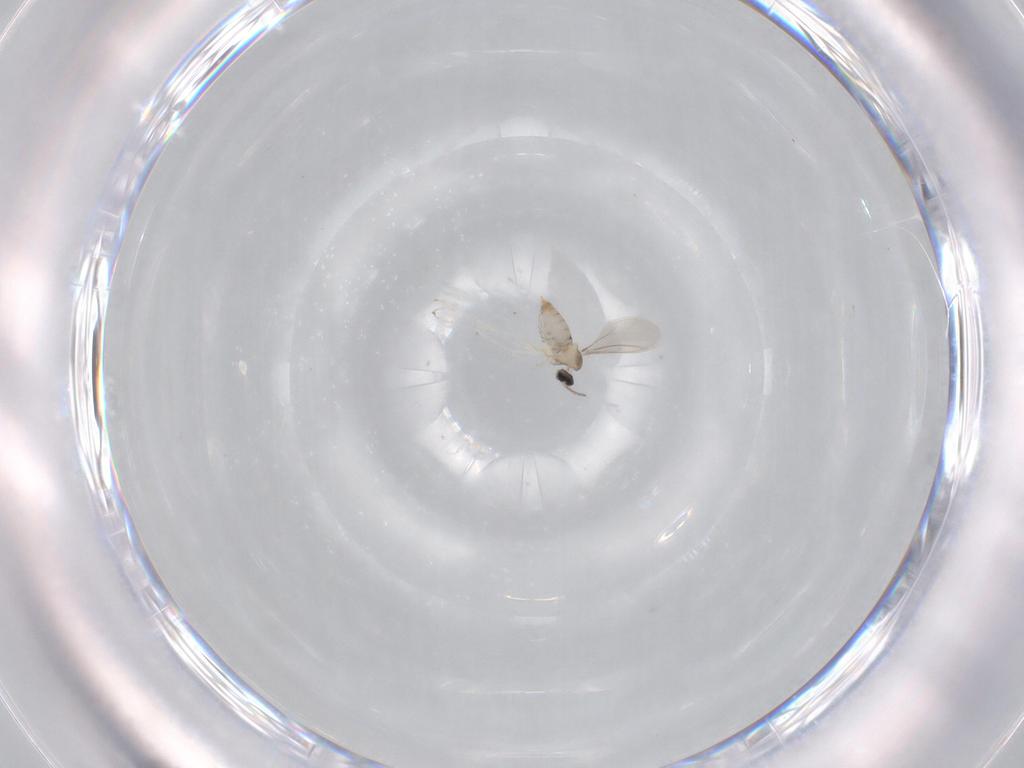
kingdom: Animalia
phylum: Arthropoda
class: Insecta
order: Diptera
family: Cecidomyiidae
